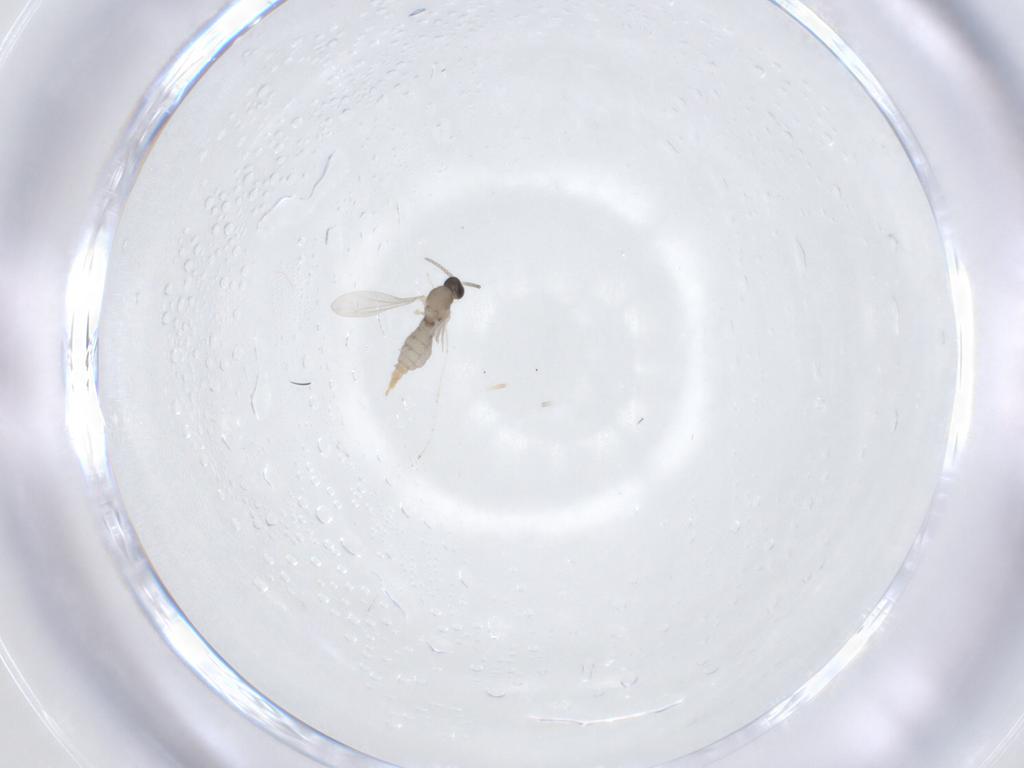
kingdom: Animalia
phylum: Arthropoda
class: Insecta
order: Diptera
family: Cecidomyiidae
